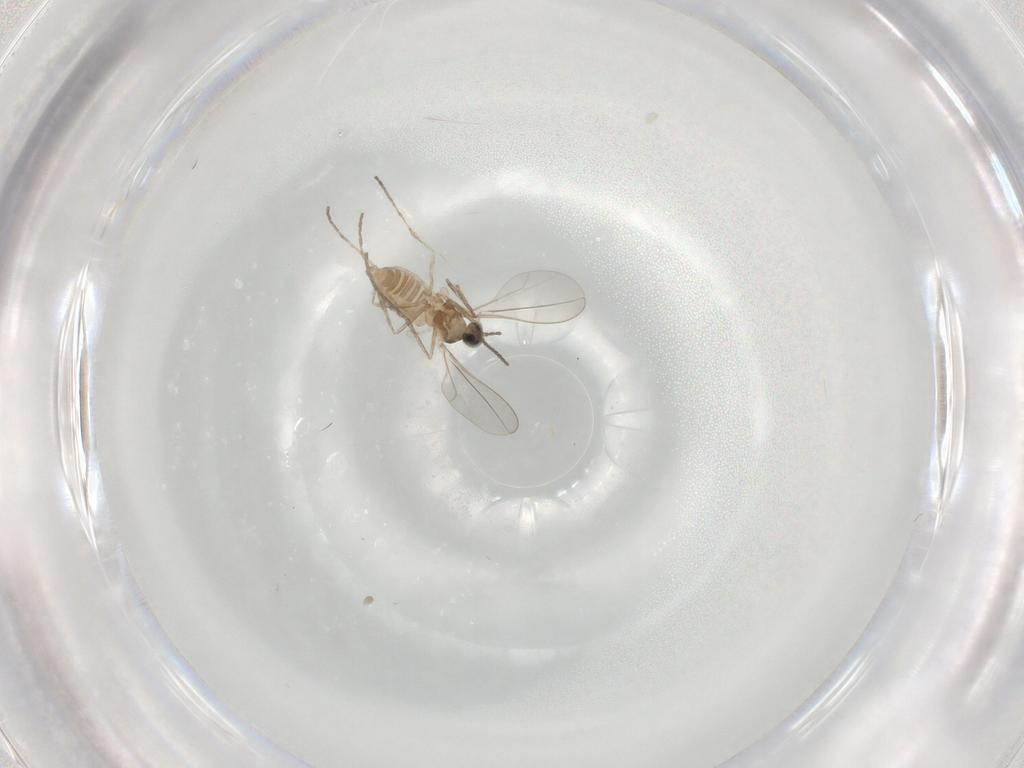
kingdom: Animalia
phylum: Arthropoda
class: Insecta
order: Diptera
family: Cecidomyiidae
